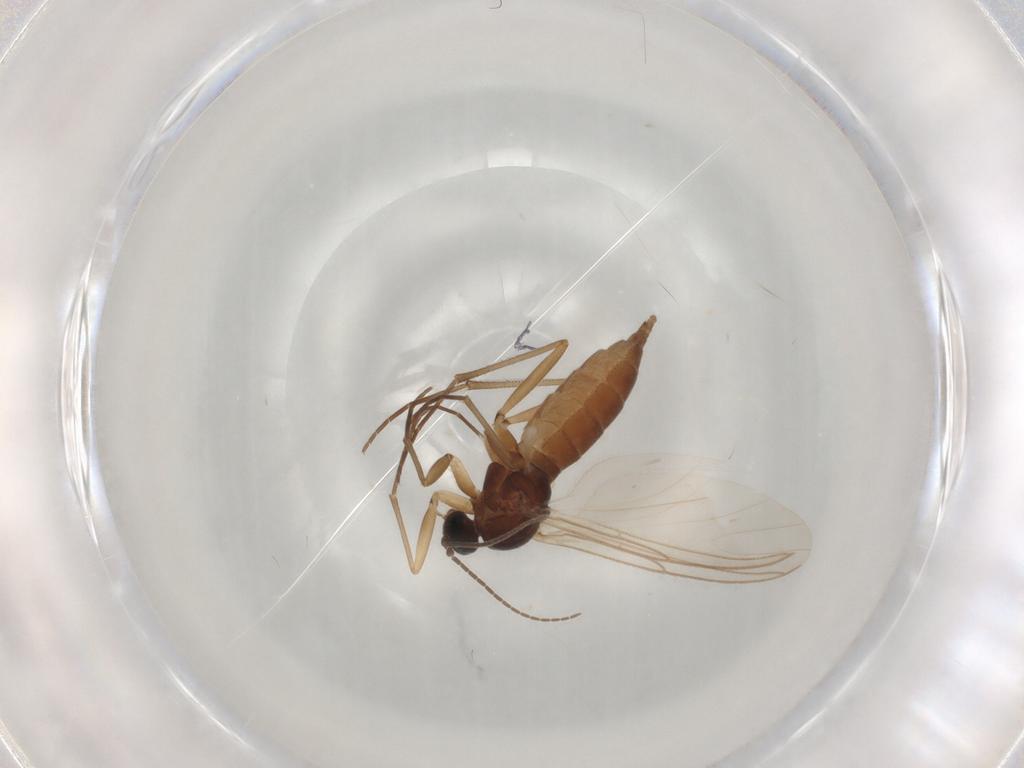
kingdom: Animalia
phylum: Arthropoda
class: Insecta
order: Diptera
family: Sciaridae
